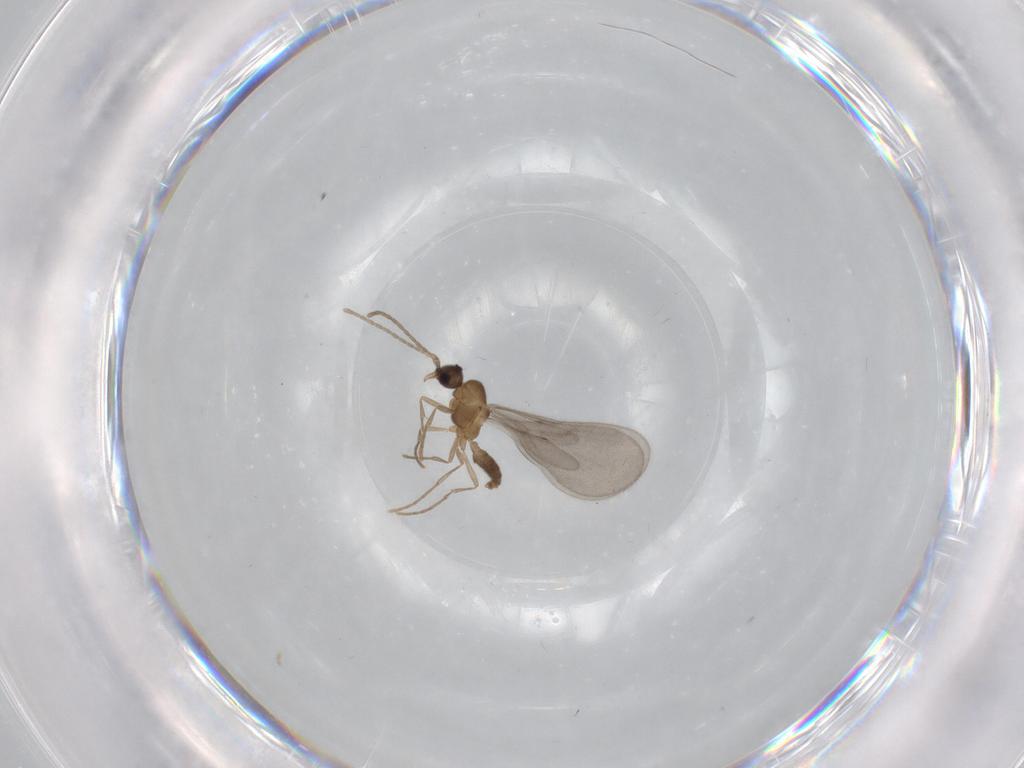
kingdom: Animalia
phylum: Arthropoda
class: Insecta
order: Hymenoptera
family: Formicidae
